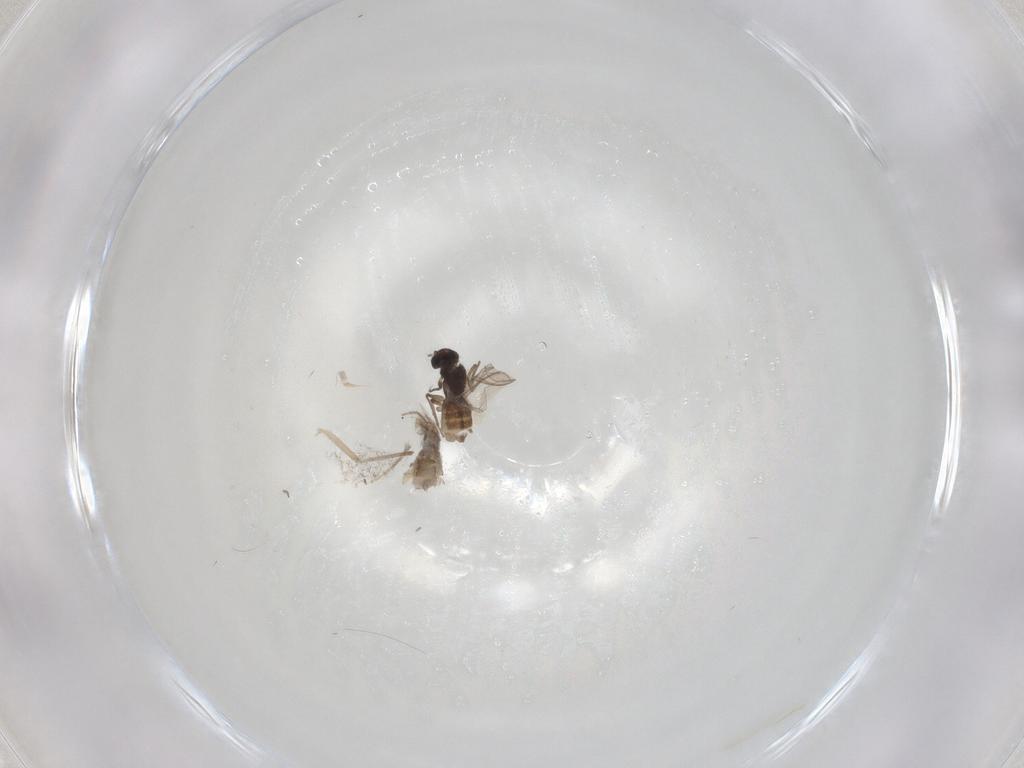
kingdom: Animalia
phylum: Arthropoda
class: Insecta
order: Diptera
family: Chironomidae
